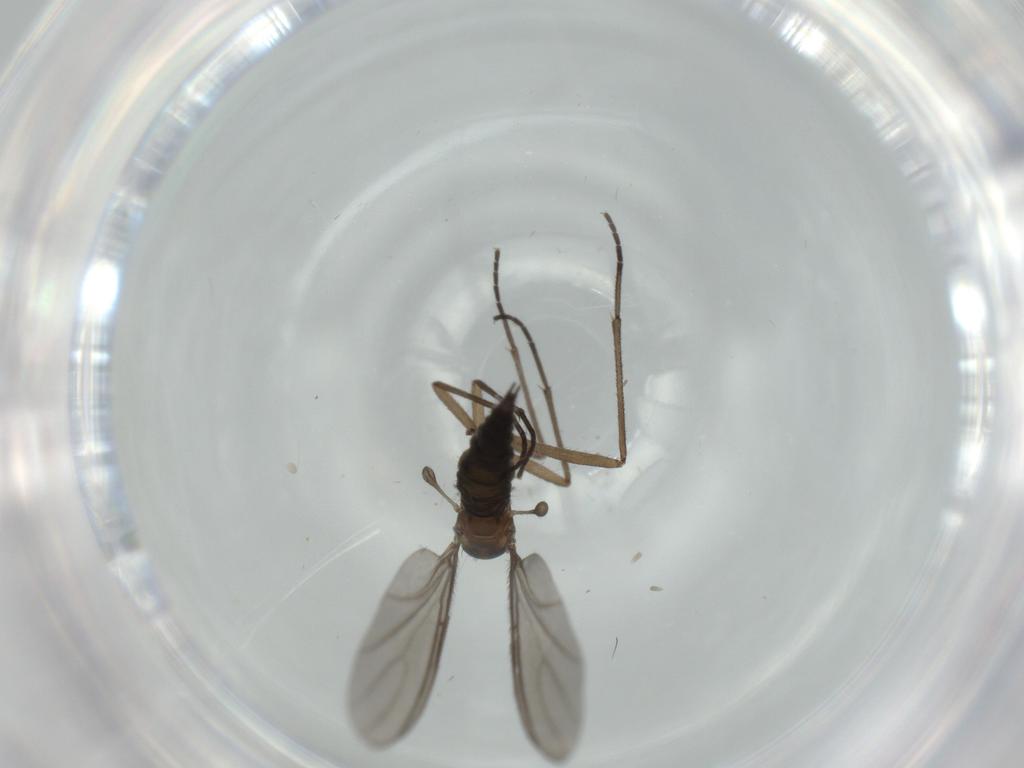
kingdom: Animalia
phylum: Arthropoda
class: Insecta
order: Diptera
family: Sciaridae
